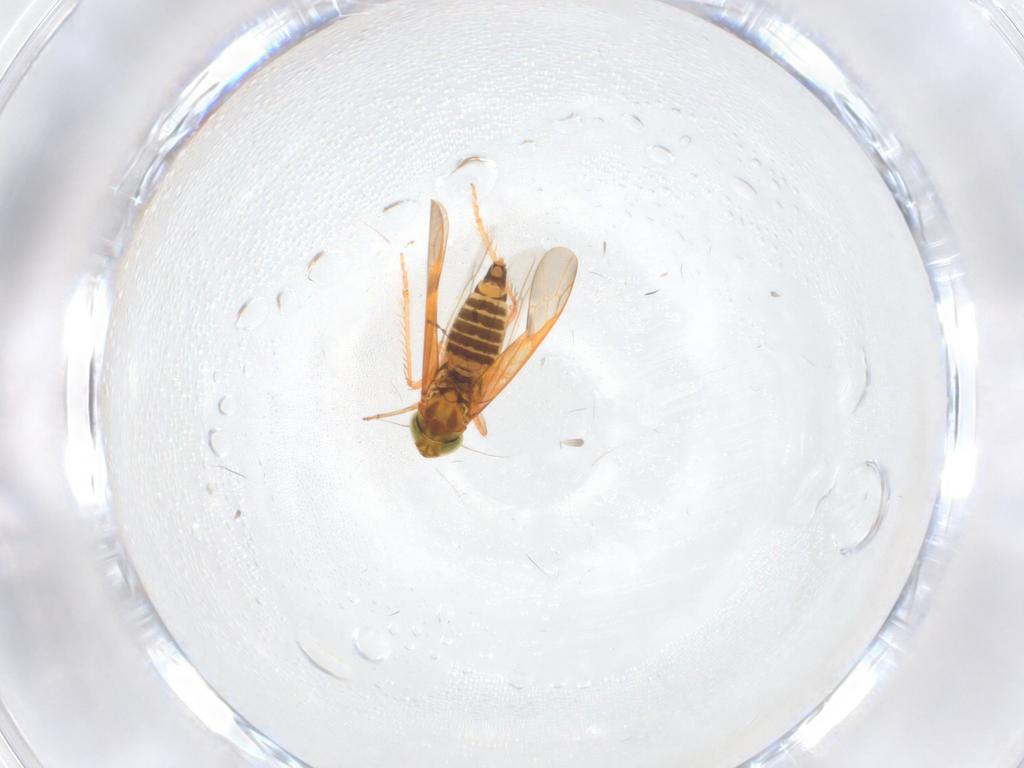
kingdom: Animalia
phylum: Arthropoda
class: Insecta
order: Hemiptera
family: Cicadellidae
